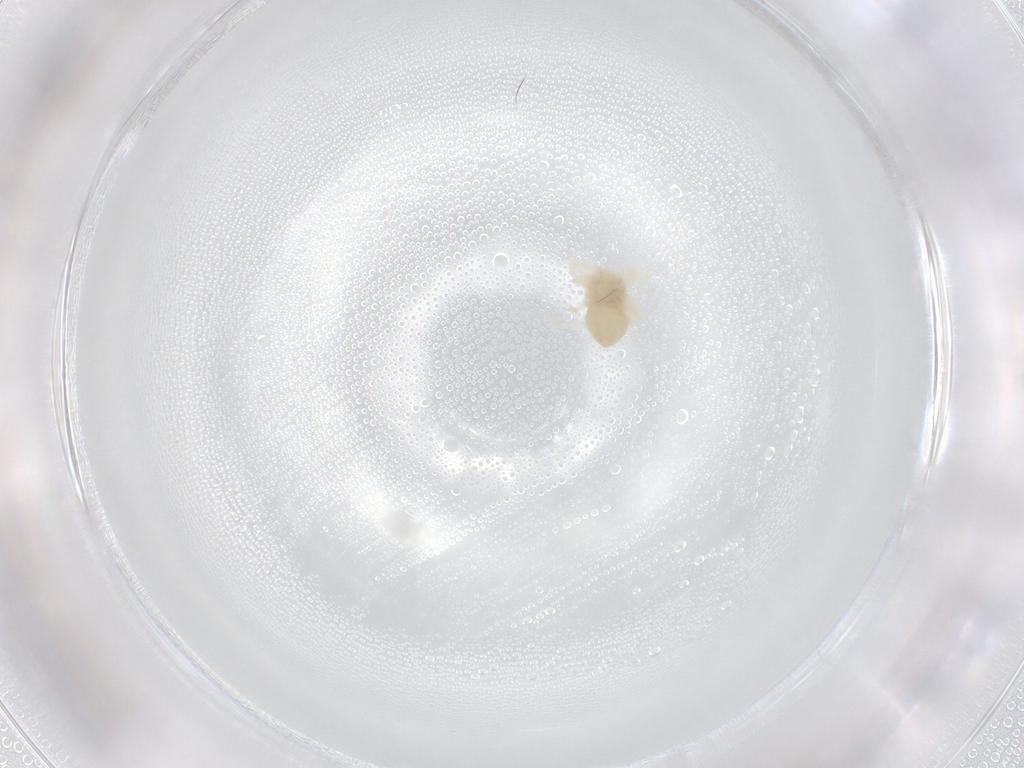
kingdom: Animalia
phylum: Arthropoda
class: Arachnida
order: Trombidiformes
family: Anystidae
